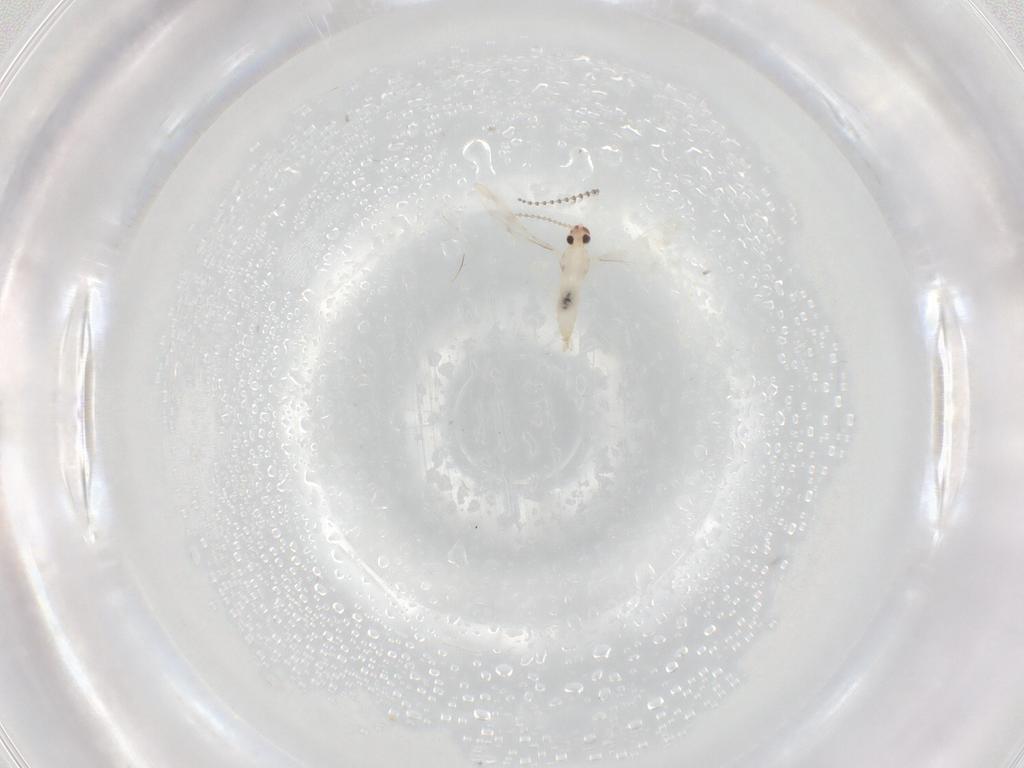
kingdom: Animalia
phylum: Arthropoda
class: Insecta
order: Diptera
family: Cecidomyiidae
